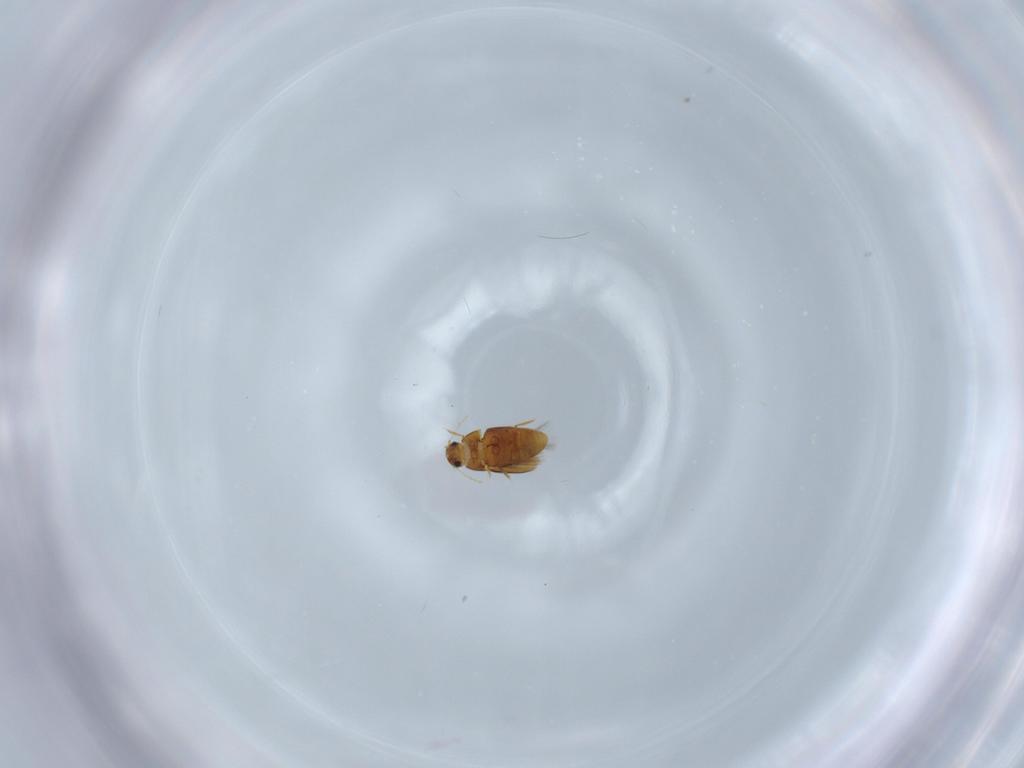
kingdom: Animalia
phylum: Arthropoda
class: Insecta
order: Coleoptera
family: Ptiliidae
